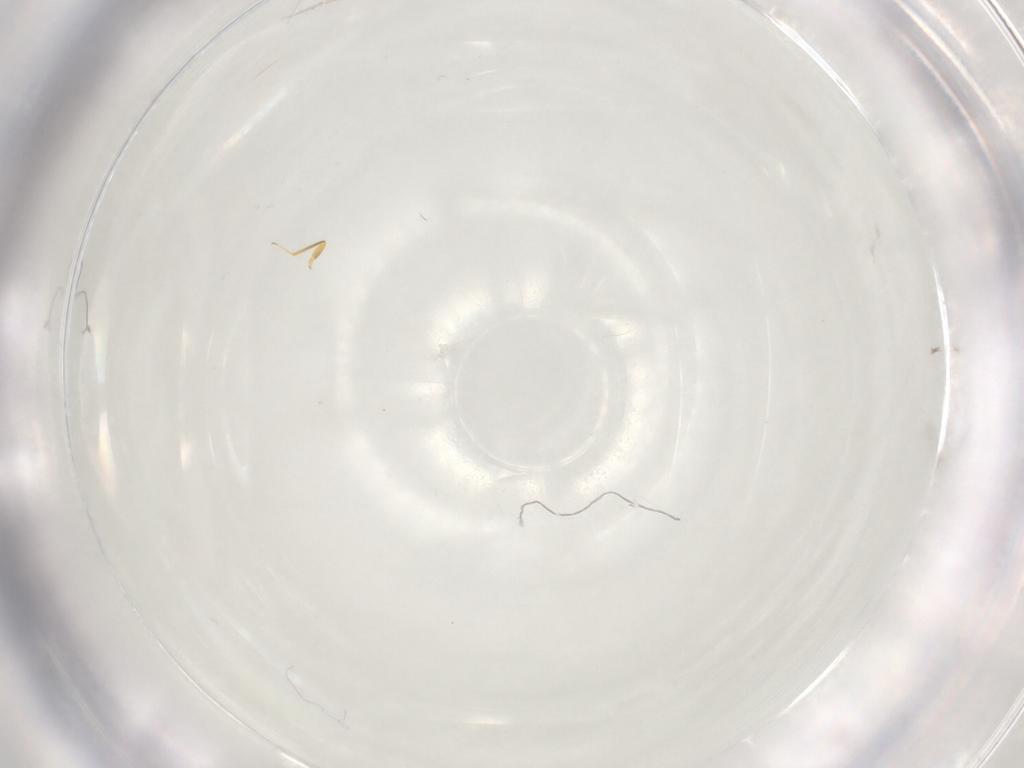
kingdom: Animalia
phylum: Arthropoda
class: Insecta
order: Hymenoptera
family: Aphelinidae
